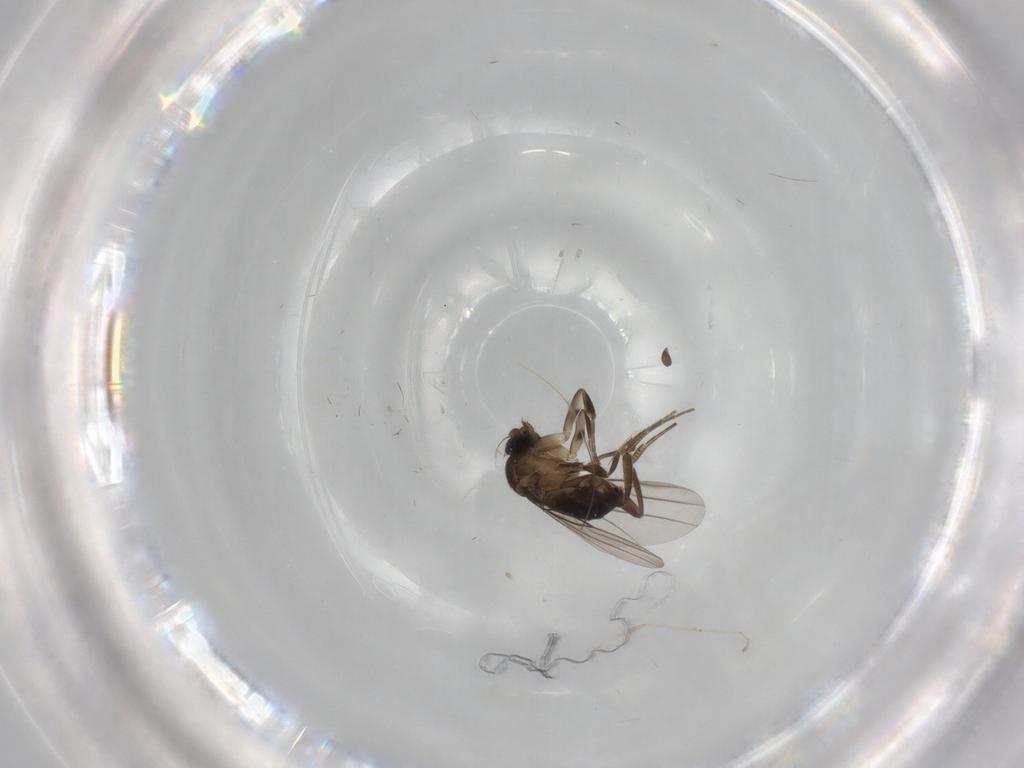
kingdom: Animalia
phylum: Arthropoda
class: Insecta
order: Diptera
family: Phoridae
